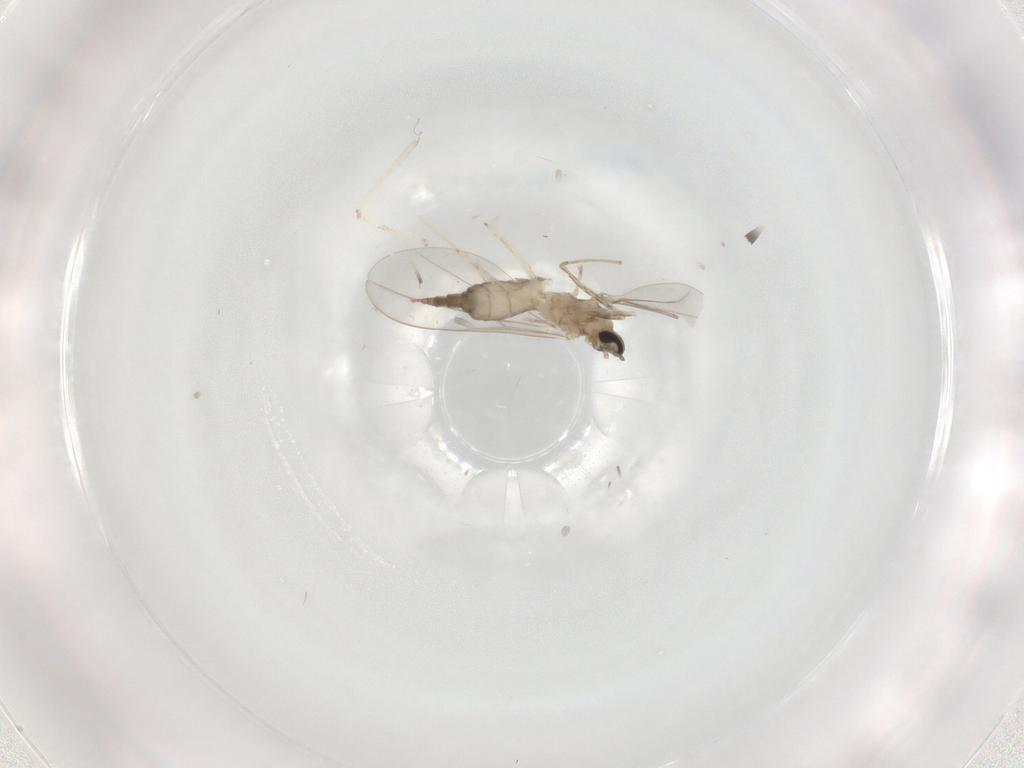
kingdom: Animalia
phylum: Arthropoda
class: Insecta
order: Diptera
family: Cecidomyiidae
